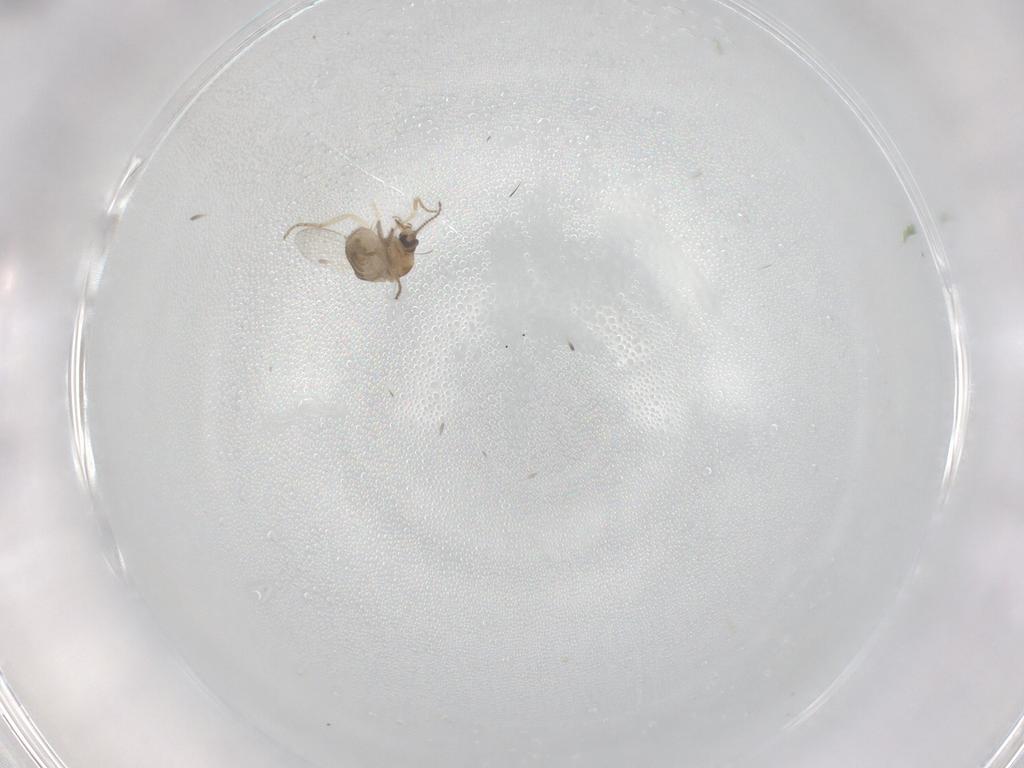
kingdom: Animalia
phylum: Arthropoda
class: Insecta
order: Diptera
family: Ceratopogonidae
